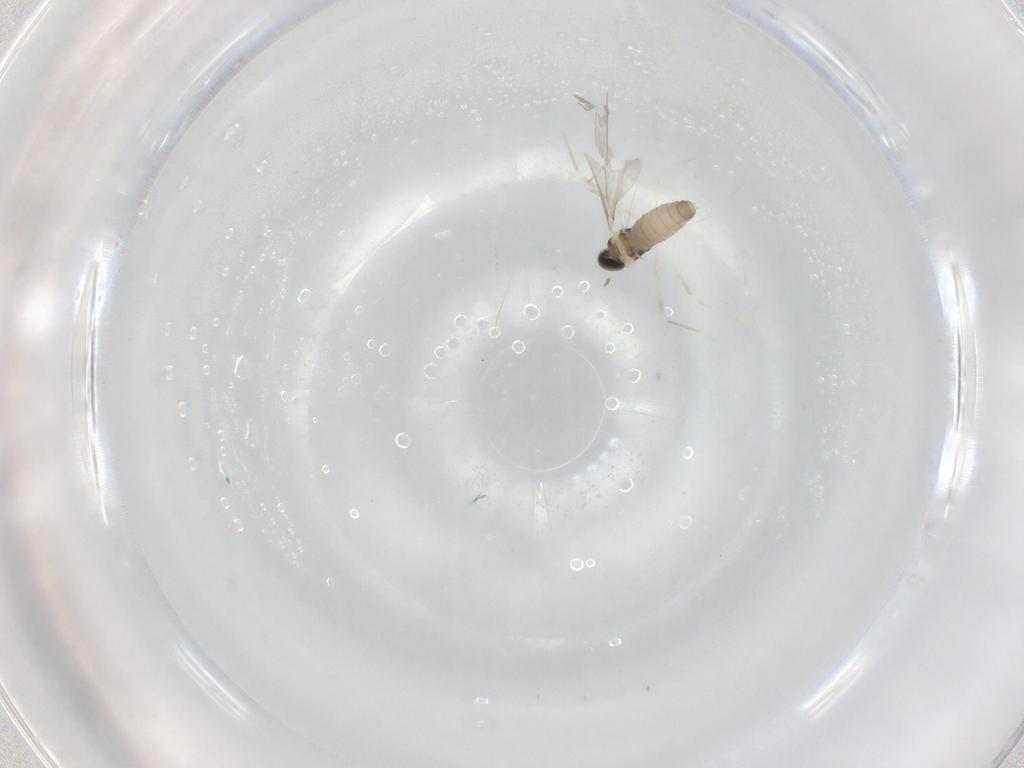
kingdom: Animalia
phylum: Arthropoda
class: Insecta
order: Diptera
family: Cecidomyiidae
